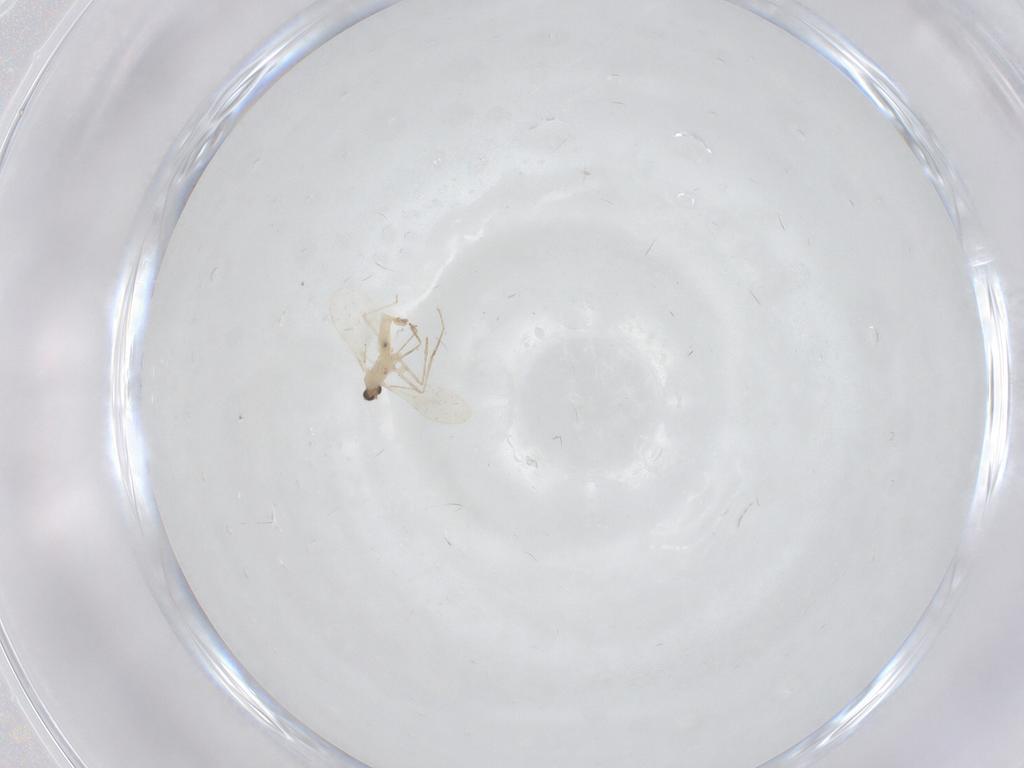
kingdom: Animalia
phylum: Arthropoda
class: Insecta
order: Diptera
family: Cecidomyiidae
